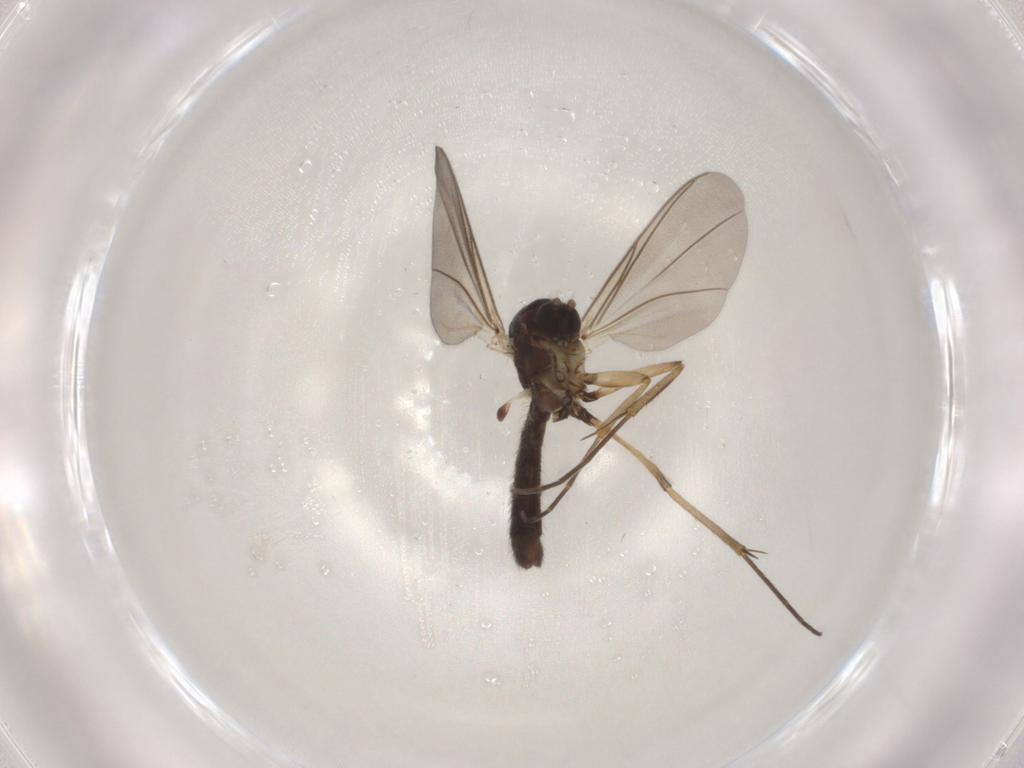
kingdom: Animalia
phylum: Arthropoda
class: Insecta
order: Diptera
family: Mycetophilidae
